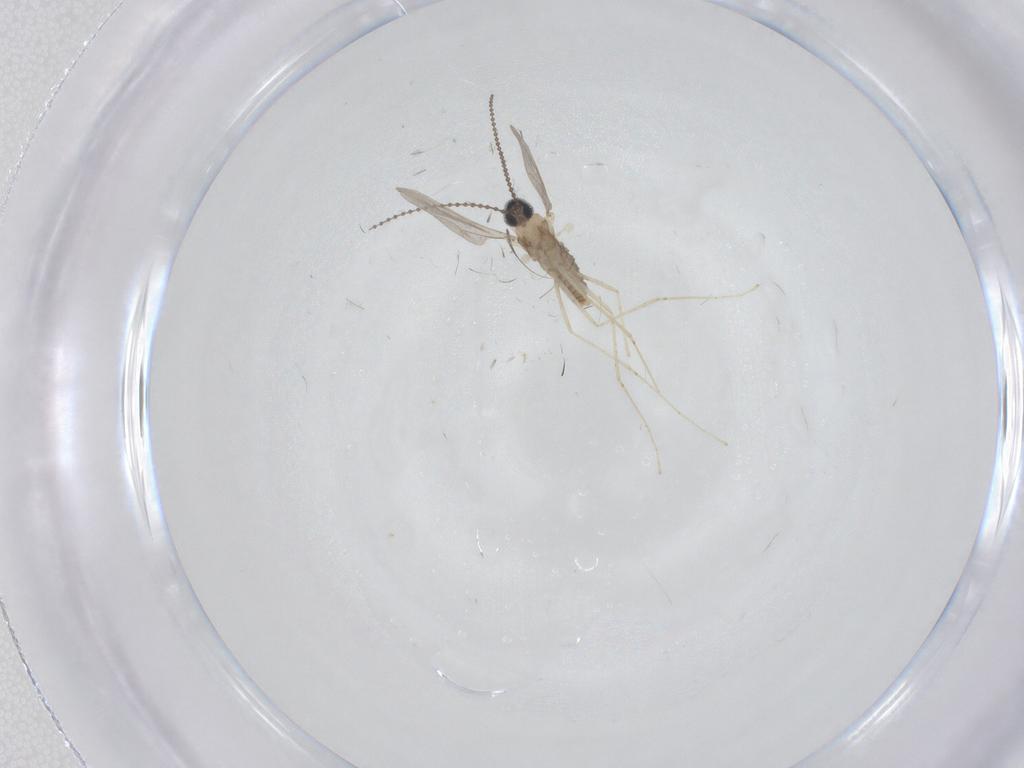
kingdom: Animalia
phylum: Arthropoda
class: Insecta
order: Diptera
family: Cecidomyiidae
